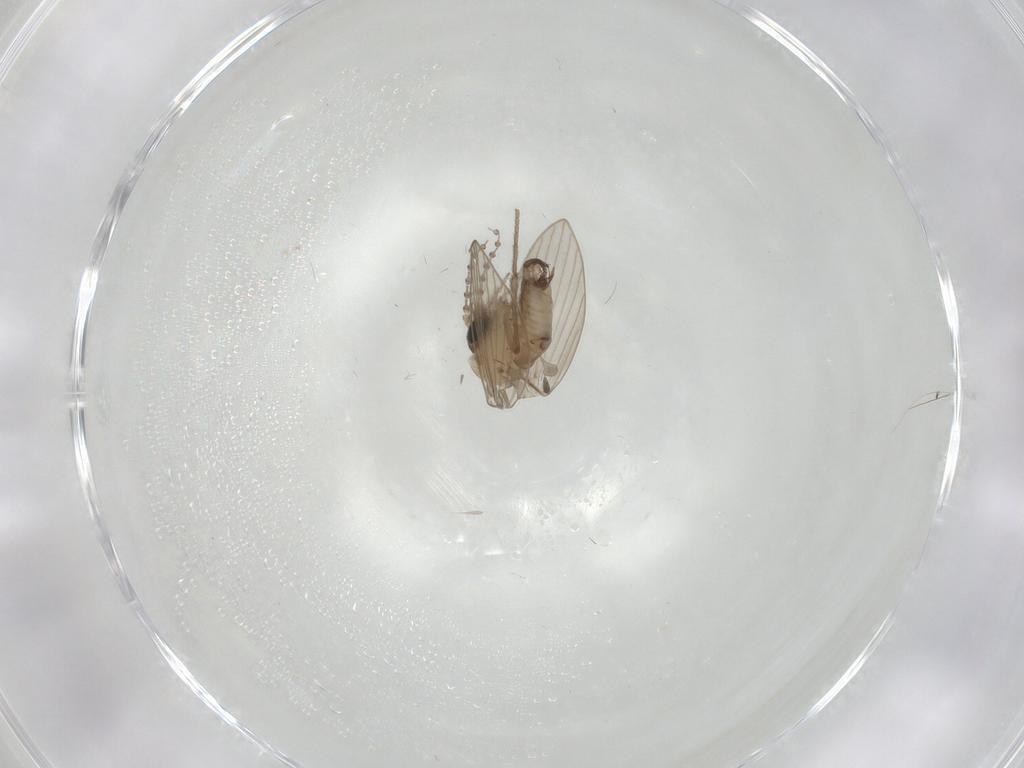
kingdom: Animalia
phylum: Arthropoda
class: Insecta
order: Diptera
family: Psychodidae
